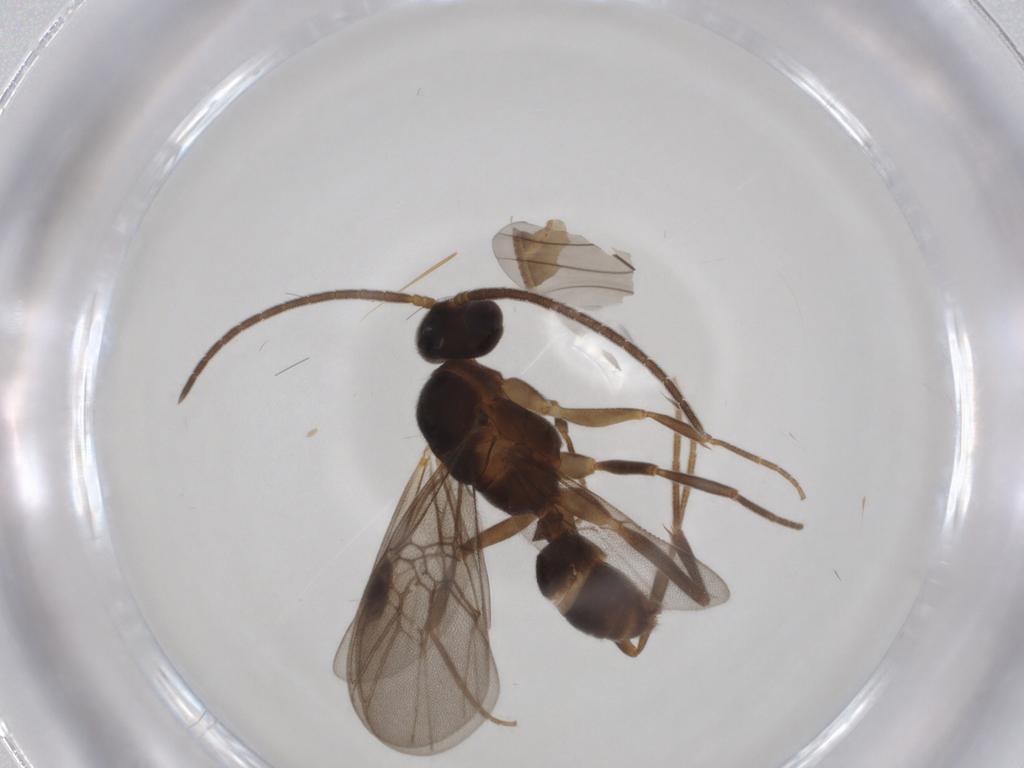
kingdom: Animalia
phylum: Arthropoda
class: Insecta
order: Hymenoptera
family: Braconidae
